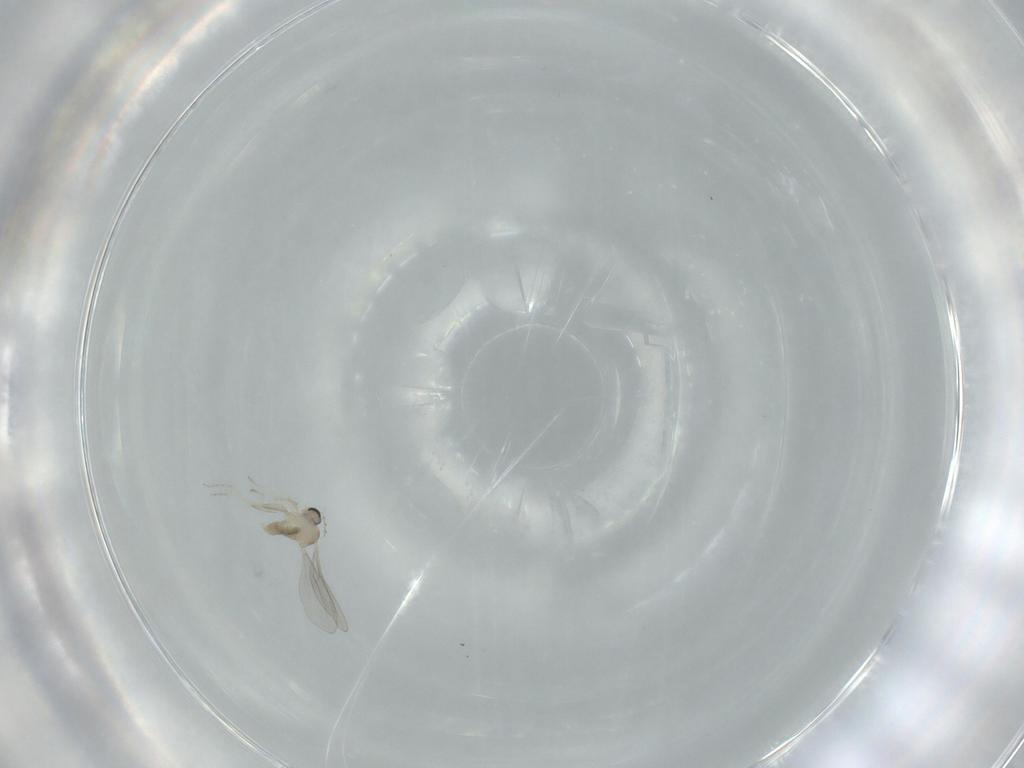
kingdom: Animalia
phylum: Arthropoda
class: Insecta
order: Diptera
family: Cecidomyiidae
